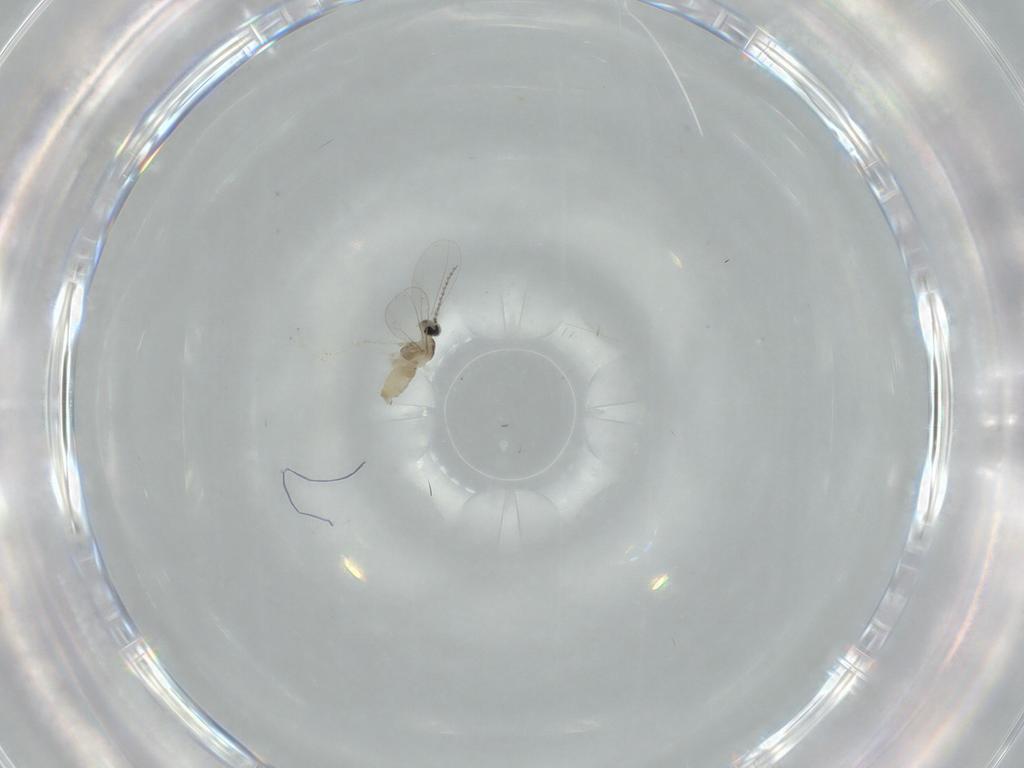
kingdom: Animalia
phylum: Arthropoda
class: Insecta
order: Diptera
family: Cecidomyiidae
